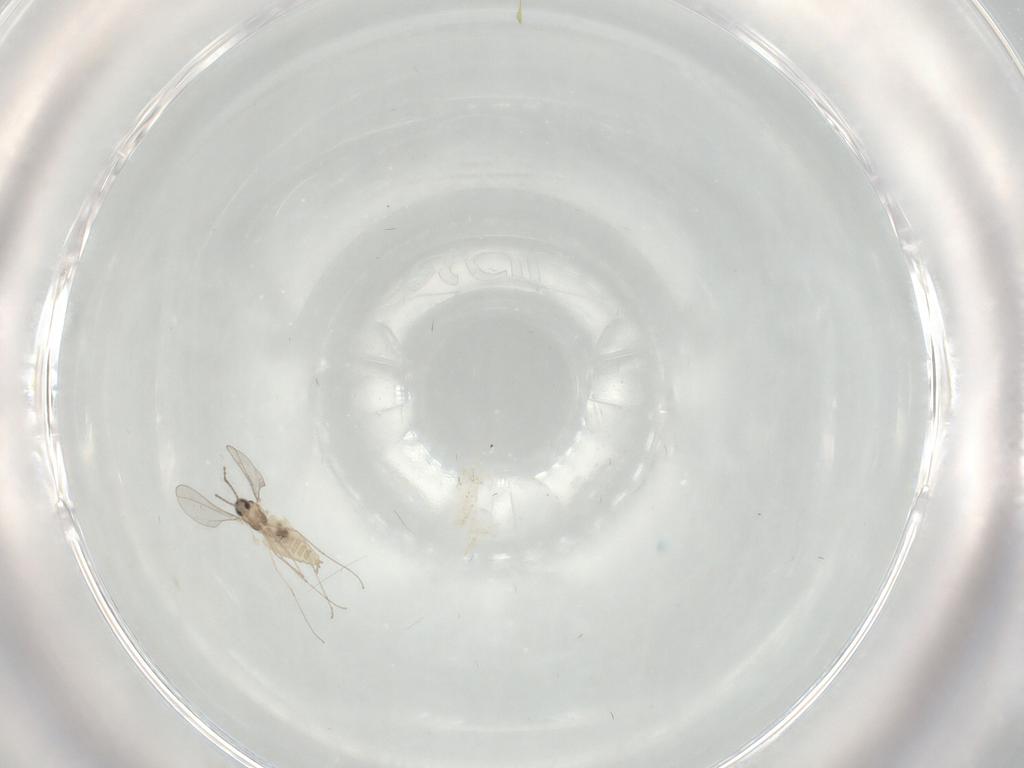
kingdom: Animalia
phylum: Arthropoda
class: Insecta
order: Diptera
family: Cecidomyiidae
